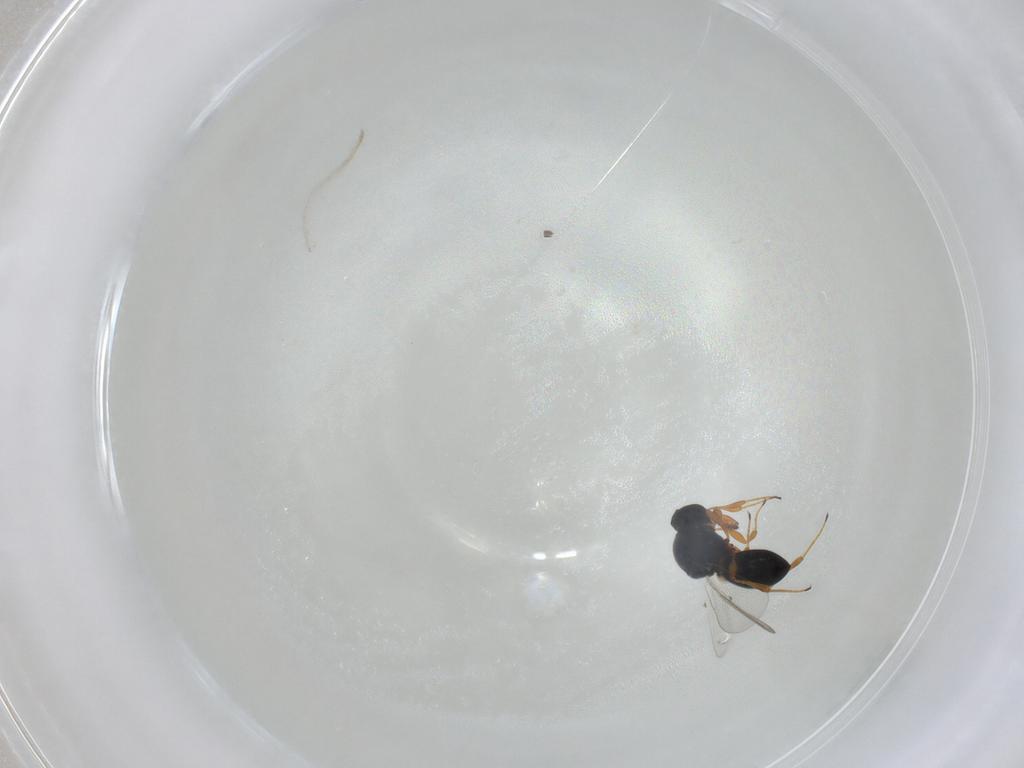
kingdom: Animalia
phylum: Arthropoda
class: Insecta
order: Hymenoptera
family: Platygastridae
